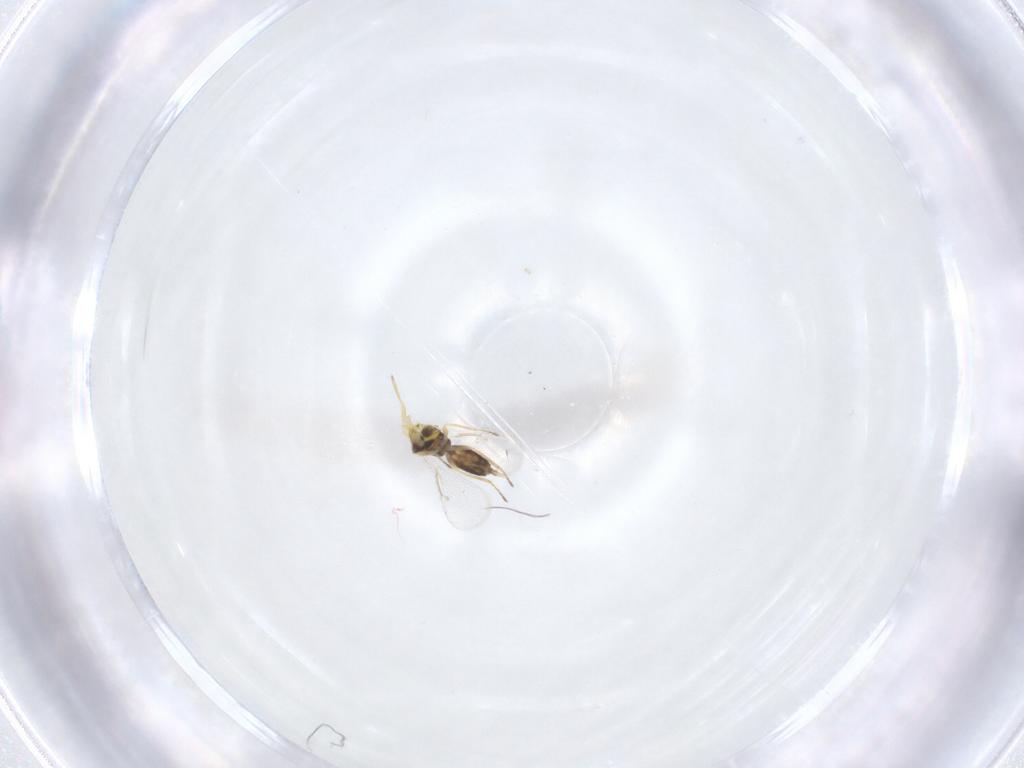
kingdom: Animalia
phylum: Arthropoda
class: Insecta
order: Hymenoptera
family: Eulophidae
